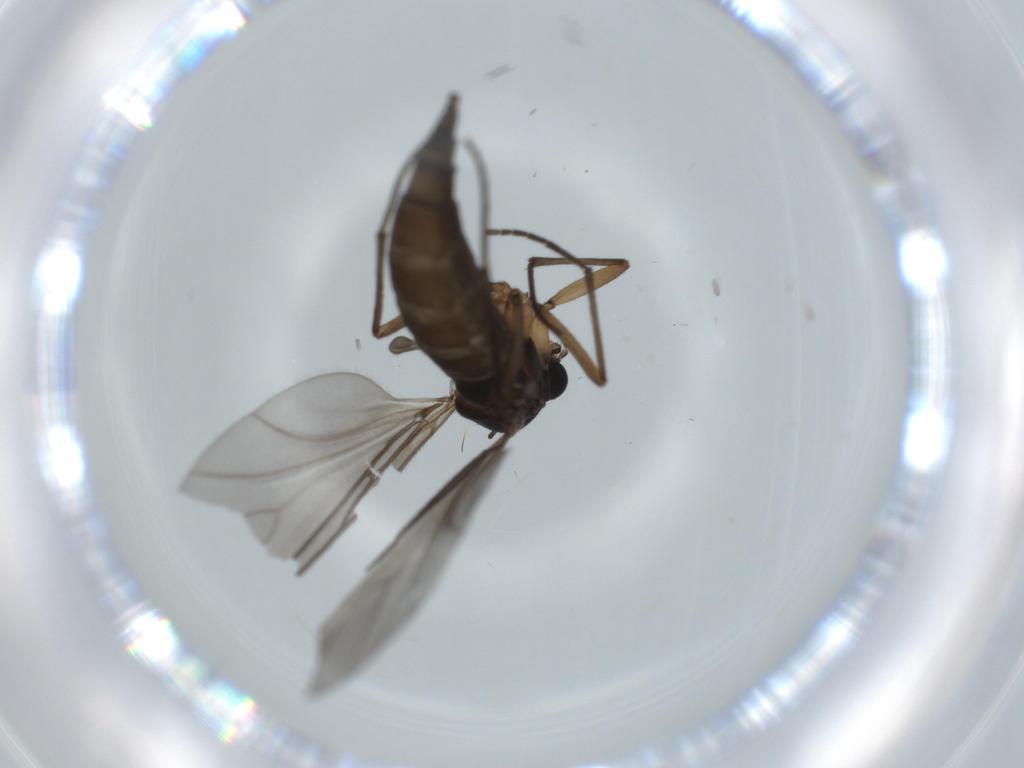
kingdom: Animalia
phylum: Arthropoda
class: Insecta
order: Diptera
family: Sciaridae
